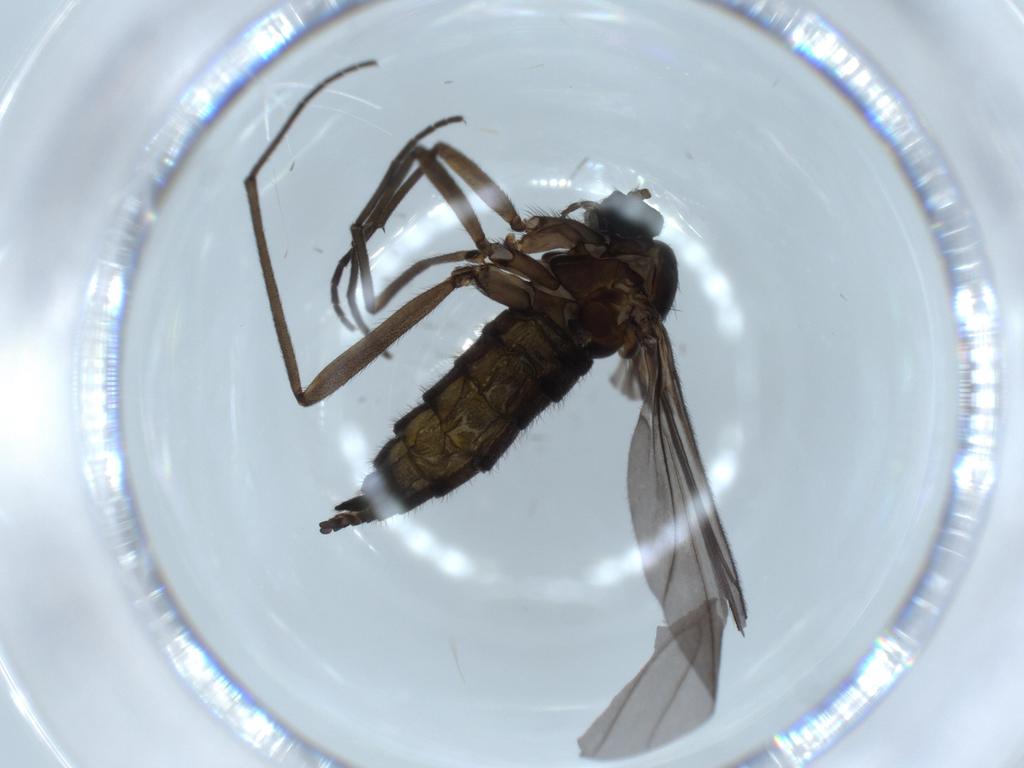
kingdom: Animalia
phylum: Arthropoda
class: Insecta
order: Diptera
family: Sciaridae
